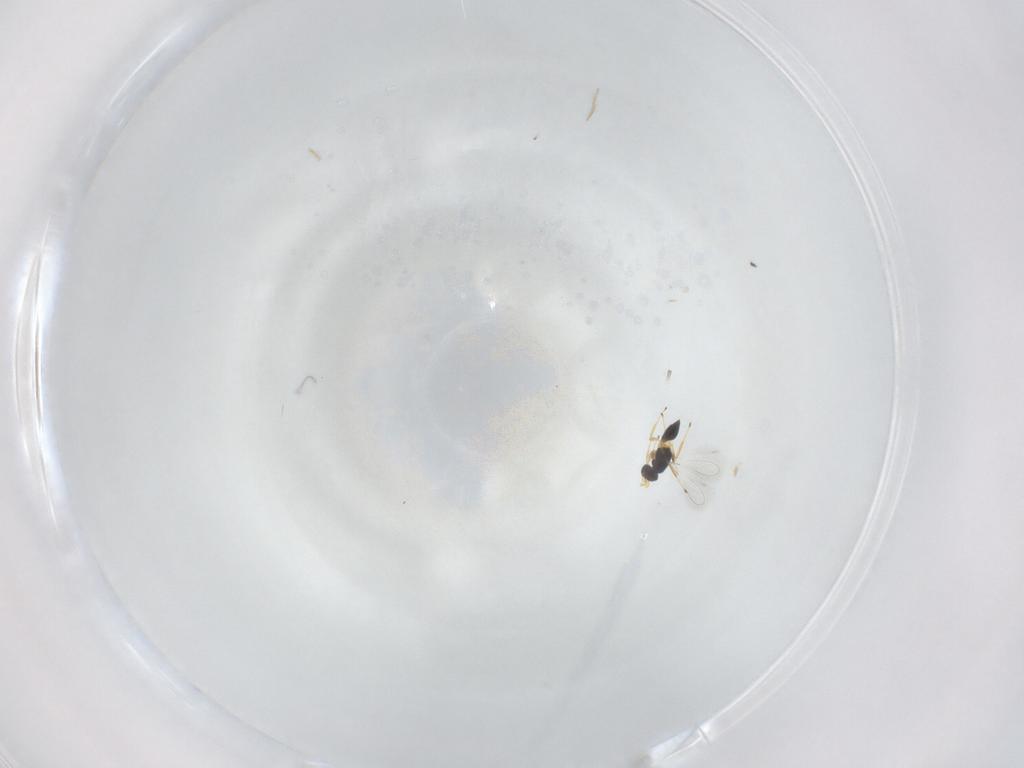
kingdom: Animalia
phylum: Arthropoda
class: Insecta
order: Hymenoptera
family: Mymaridae
